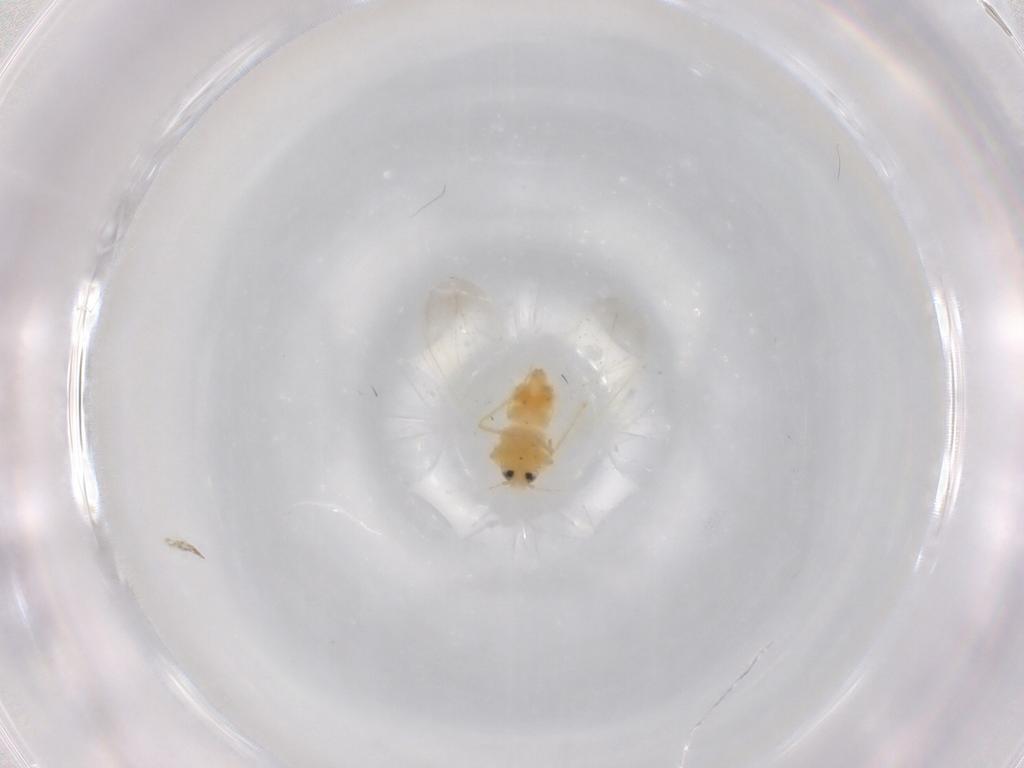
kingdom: Animalia
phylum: Arthropoda
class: Insecta
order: Hemiptera
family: Aleyrodidae
